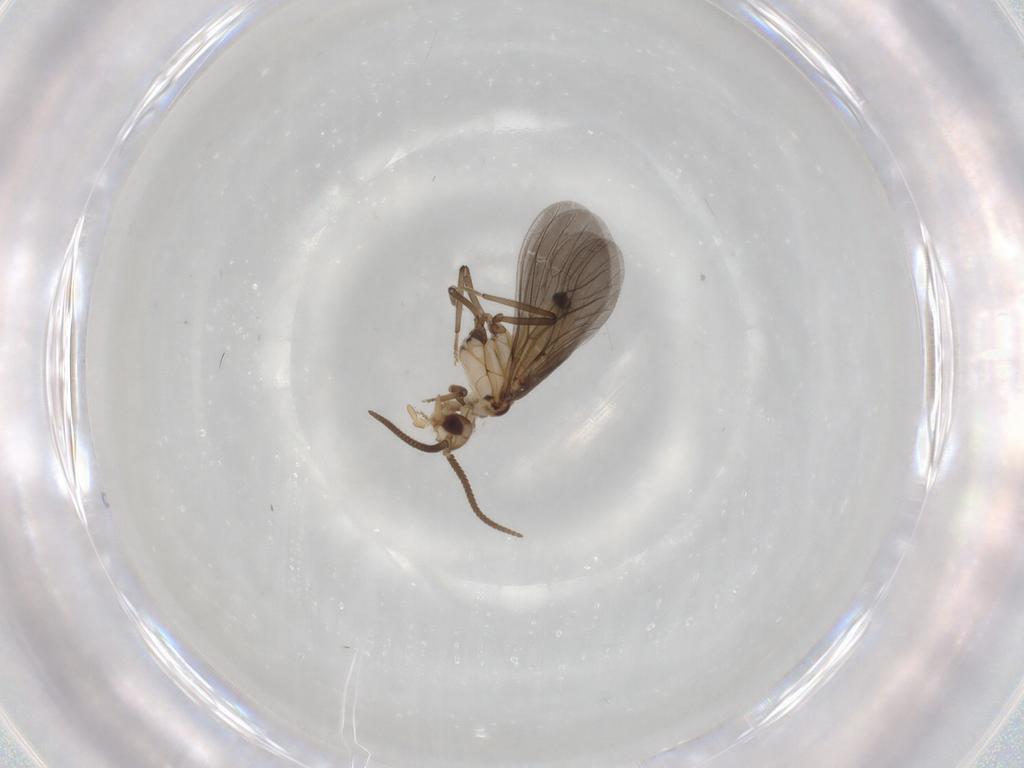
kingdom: Animalia
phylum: Arthropoda
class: Insecta
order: Neuroptera
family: Coniopterygidae
